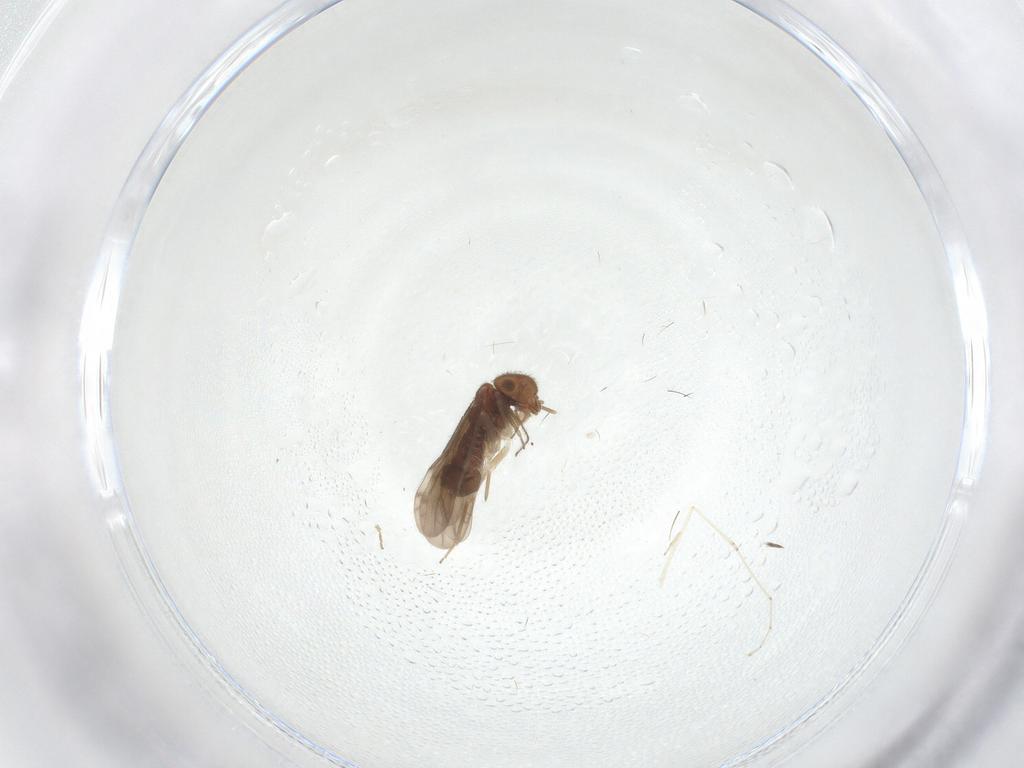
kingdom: Animalia
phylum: Arthropoda
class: Insecta
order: Psocodea
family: Ectopsocidae
